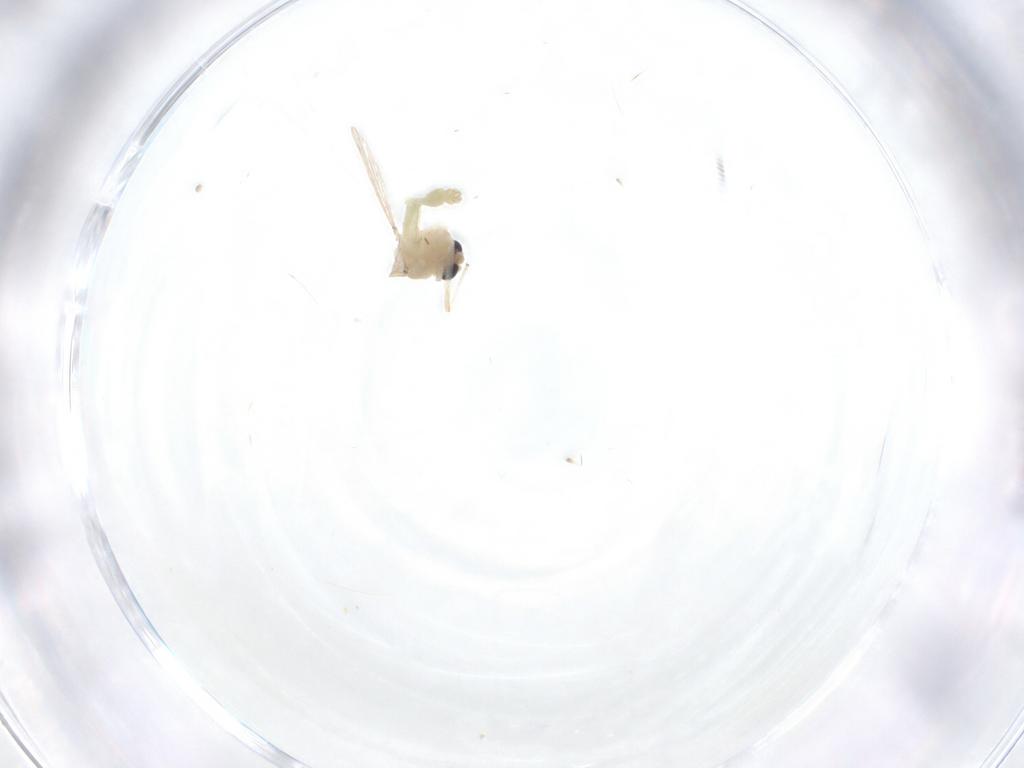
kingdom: Animalia
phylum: Arthropoda
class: Insecta
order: Diptera
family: Chironomidae
